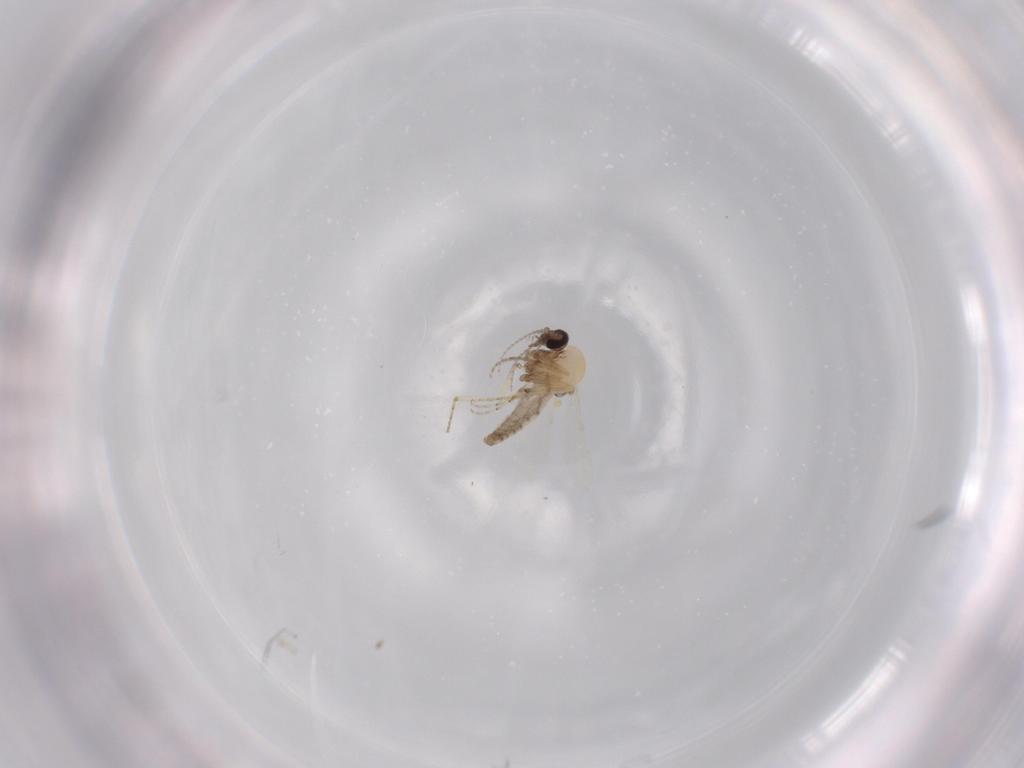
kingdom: Animalia
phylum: Arthropoda
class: Insecta
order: Diptera
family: Ceratopogonidae
